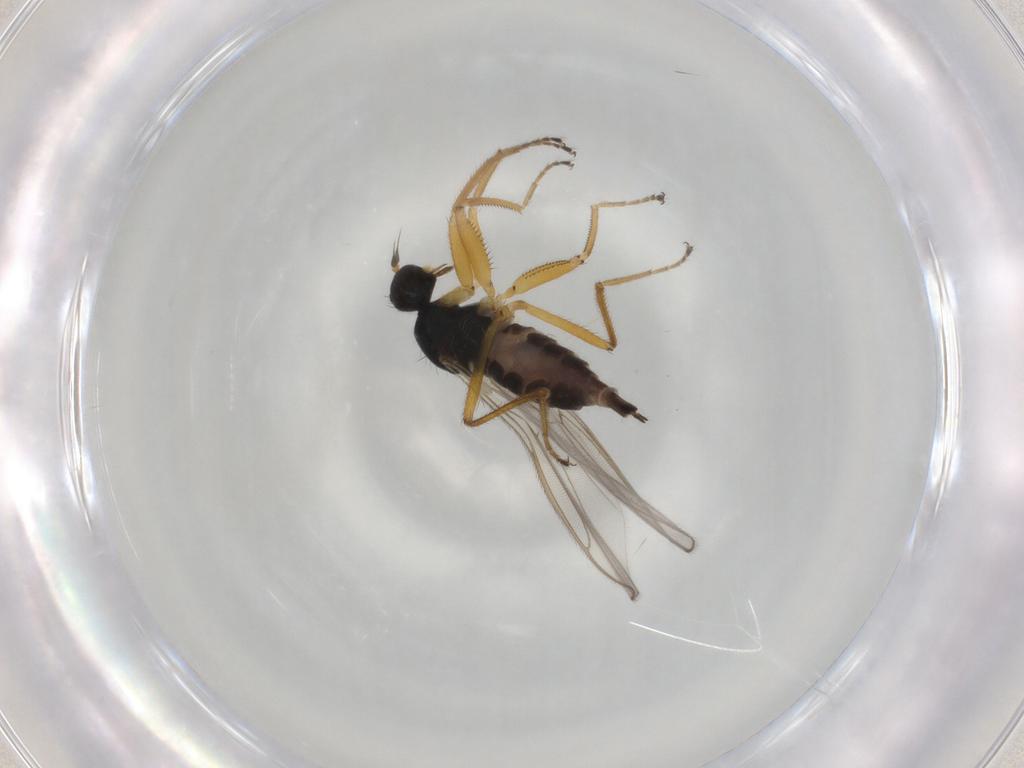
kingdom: Animalia
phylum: Arthropoda
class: Insecta
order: Diptera
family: Hybotidae
